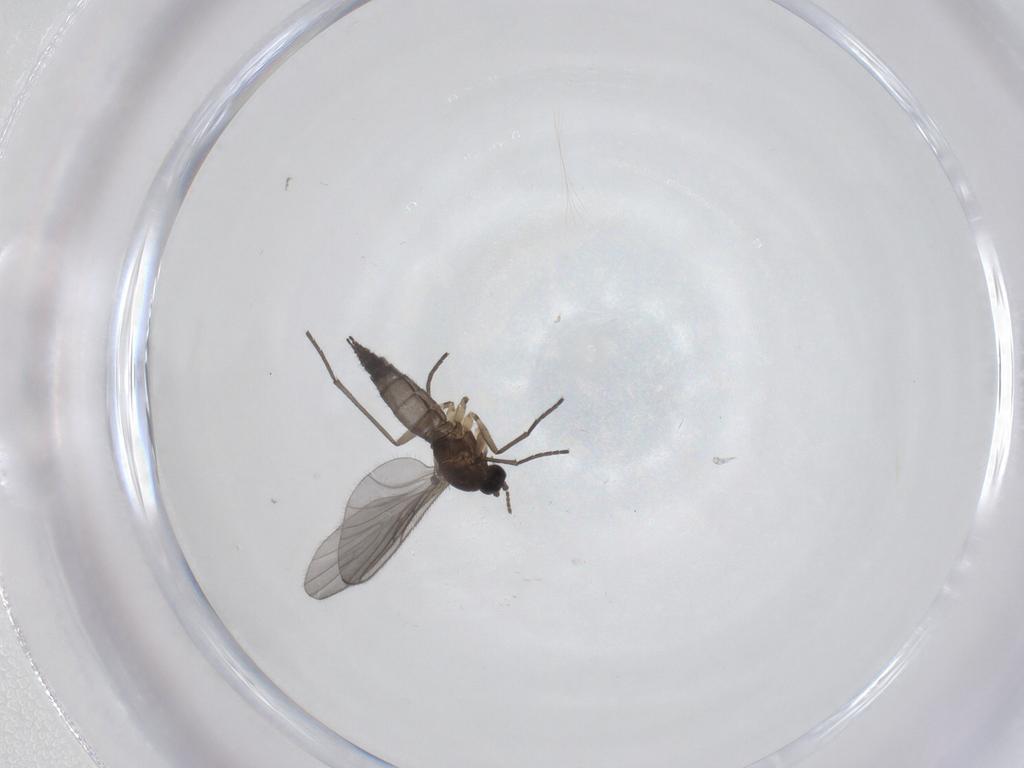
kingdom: Animalia
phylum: Arthropoda
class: Insecta
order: Diptera
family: Sciaridae
